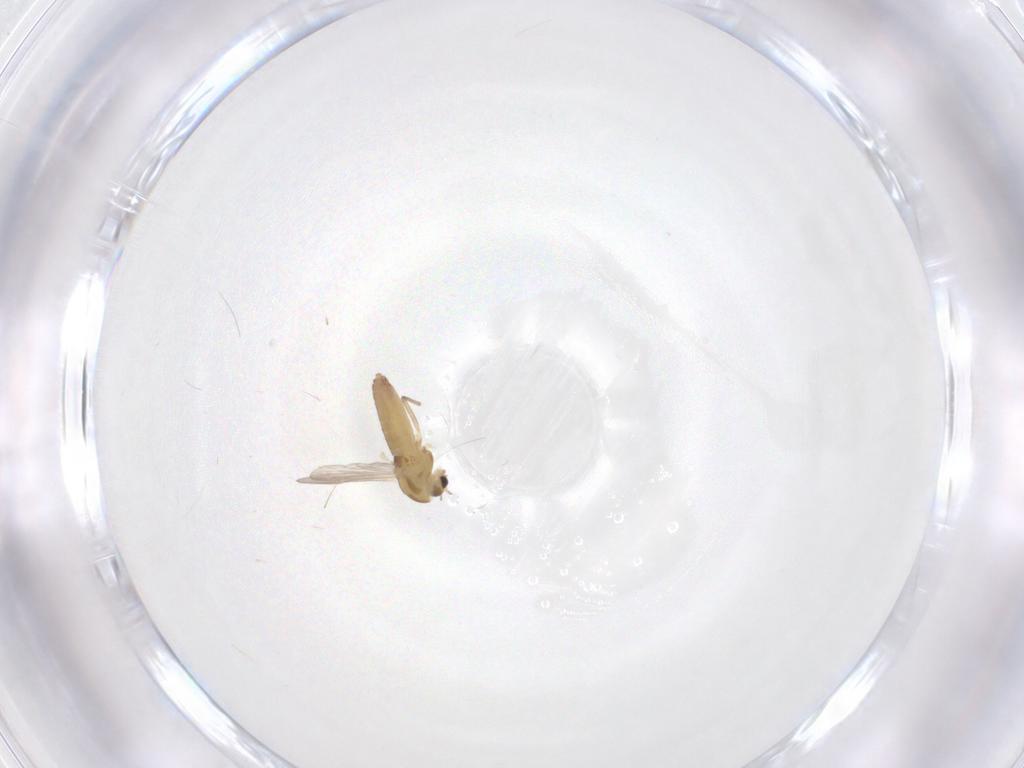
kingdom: Animalia
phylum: Arthropoda
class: Insecta
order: Diptera
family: Chironomidae
